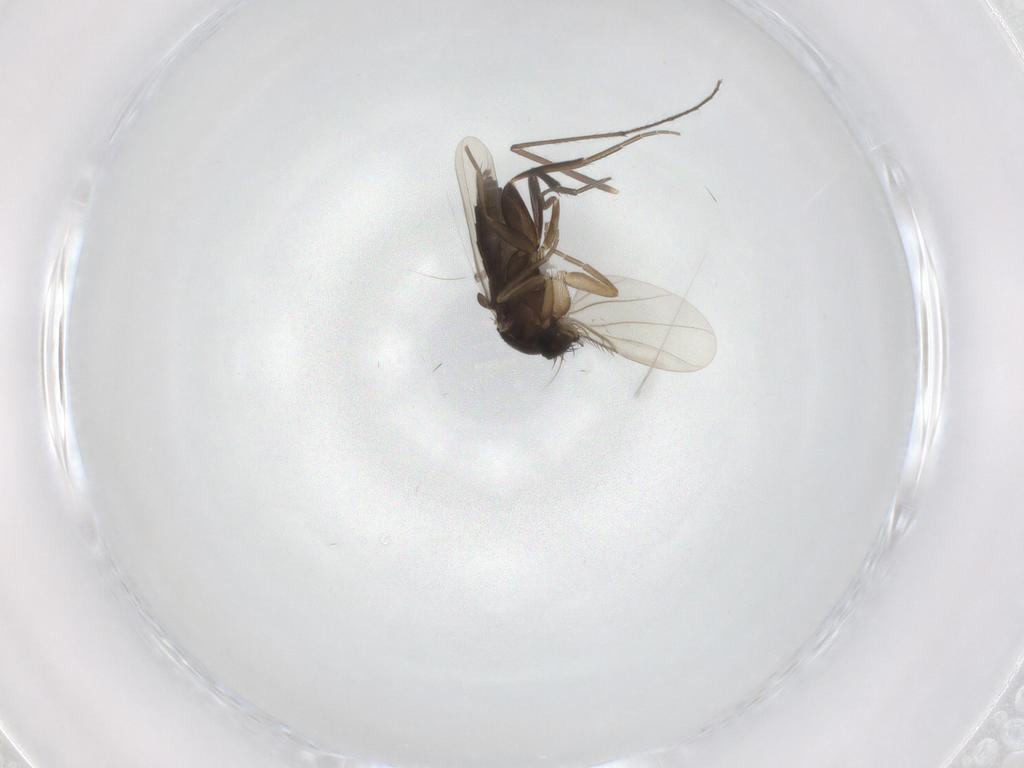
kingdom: Animalia
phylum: Arthropoda
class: Insecta
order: Diptera
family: Phoridae
